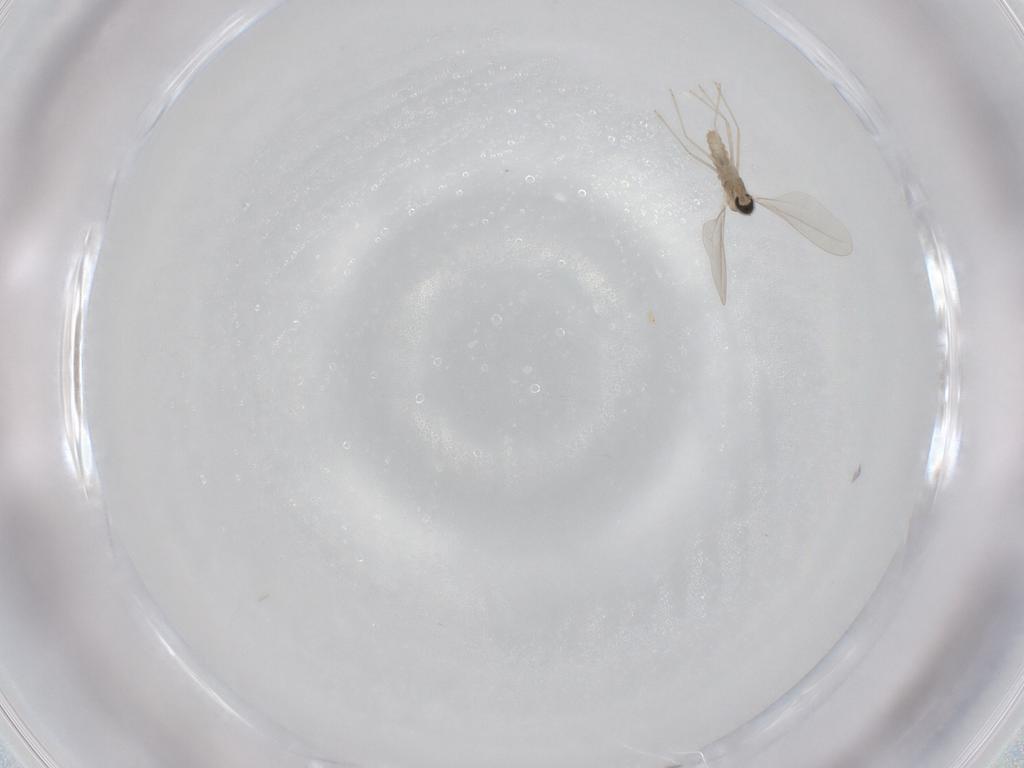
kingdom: Animalia
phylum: Arthropoda
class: Insecta
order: Diptera
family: Cecidomyiidae
